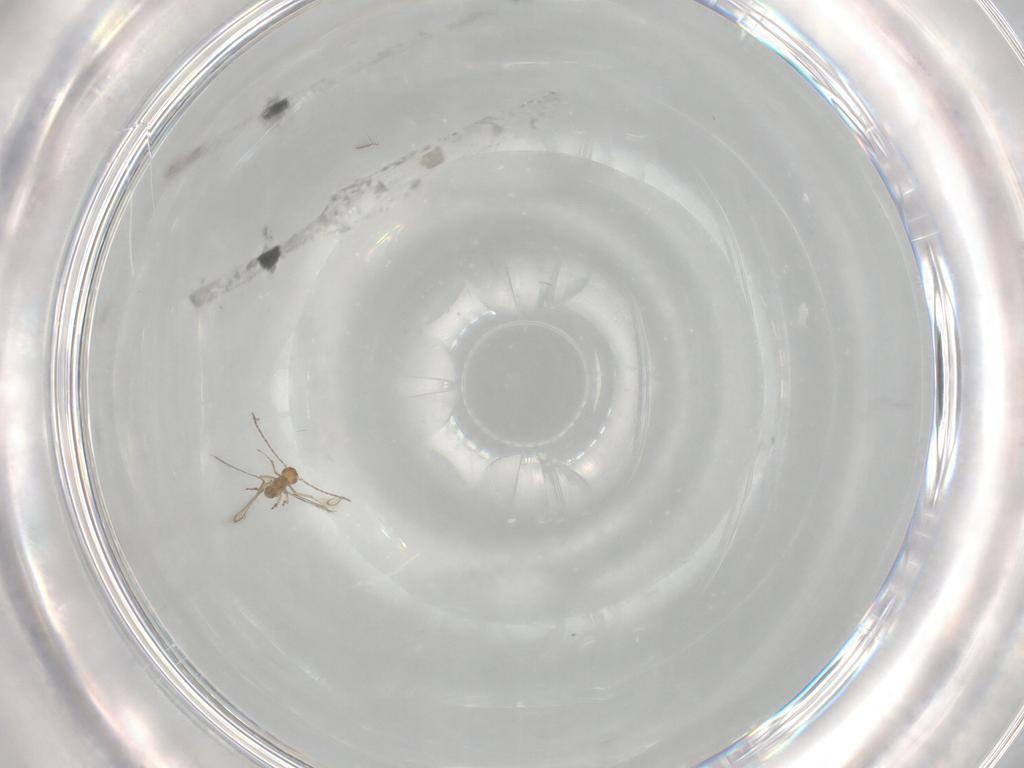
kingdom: Animalia
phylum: Arthropoda
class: Insecta
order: Hymenoptera
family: Mymaridae
